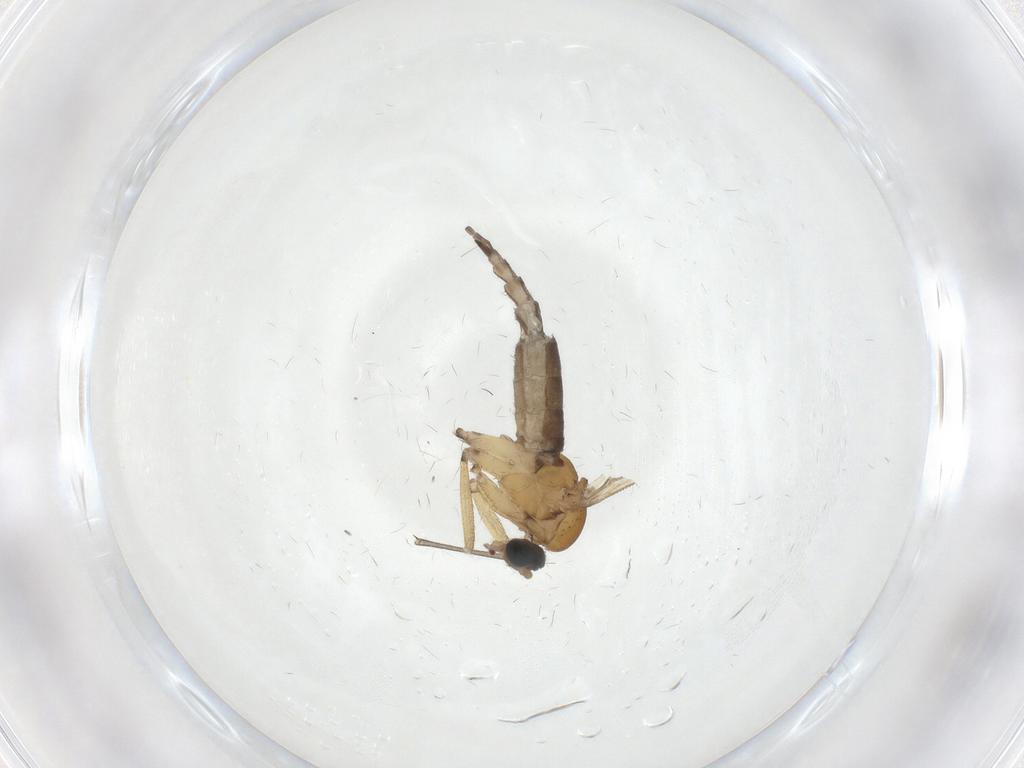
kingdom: Animalia
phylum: Arthropoda
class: Insecta
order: Diptera
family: Sciaridae
